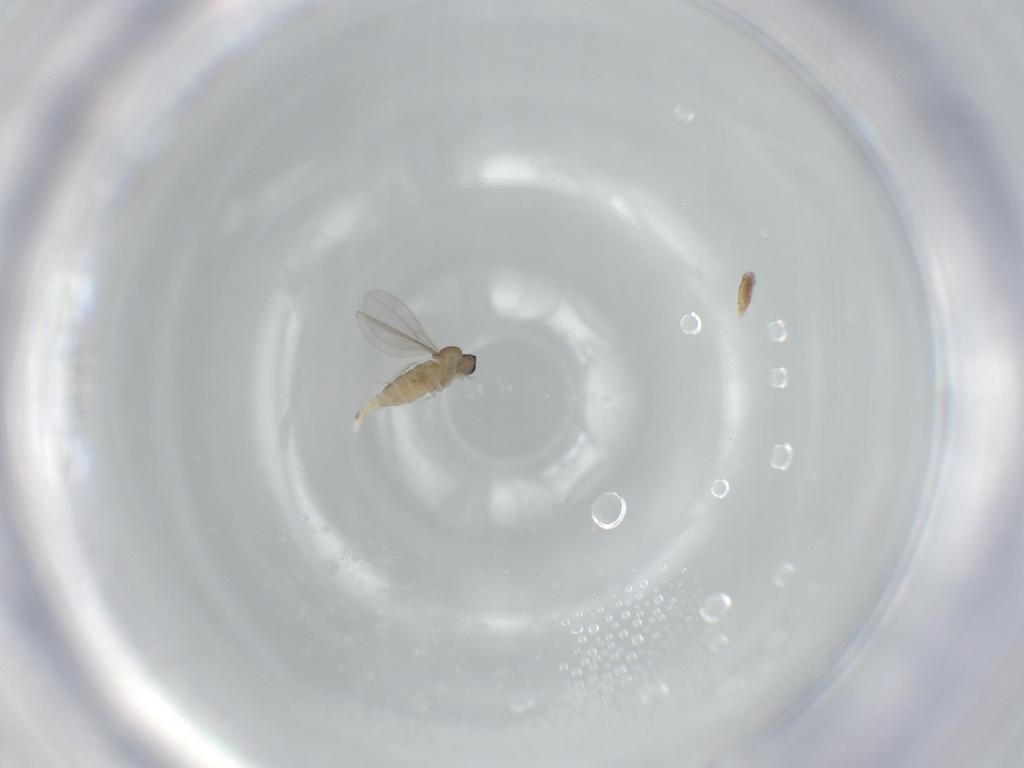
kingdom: Animalia
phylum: Arthropoda
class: Insecta
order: Diptera
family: Cecidomyiidae
